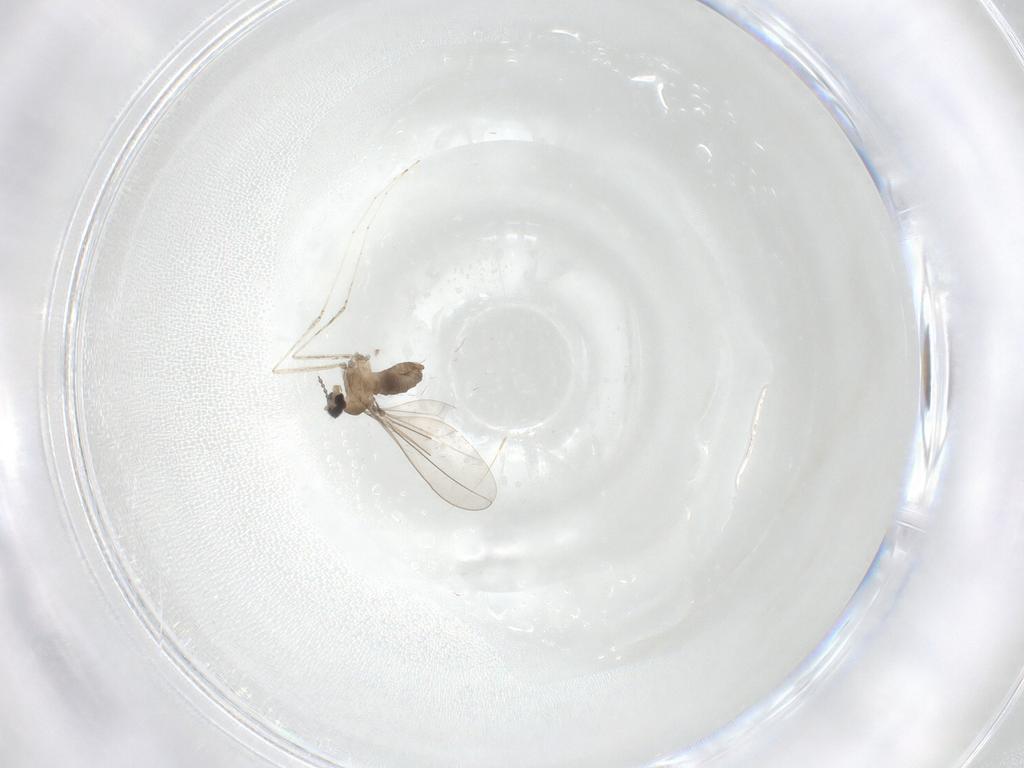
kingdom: Animalia
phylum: Arthropoda
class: Insecta
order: Diptera
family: Cecidomyiidae
